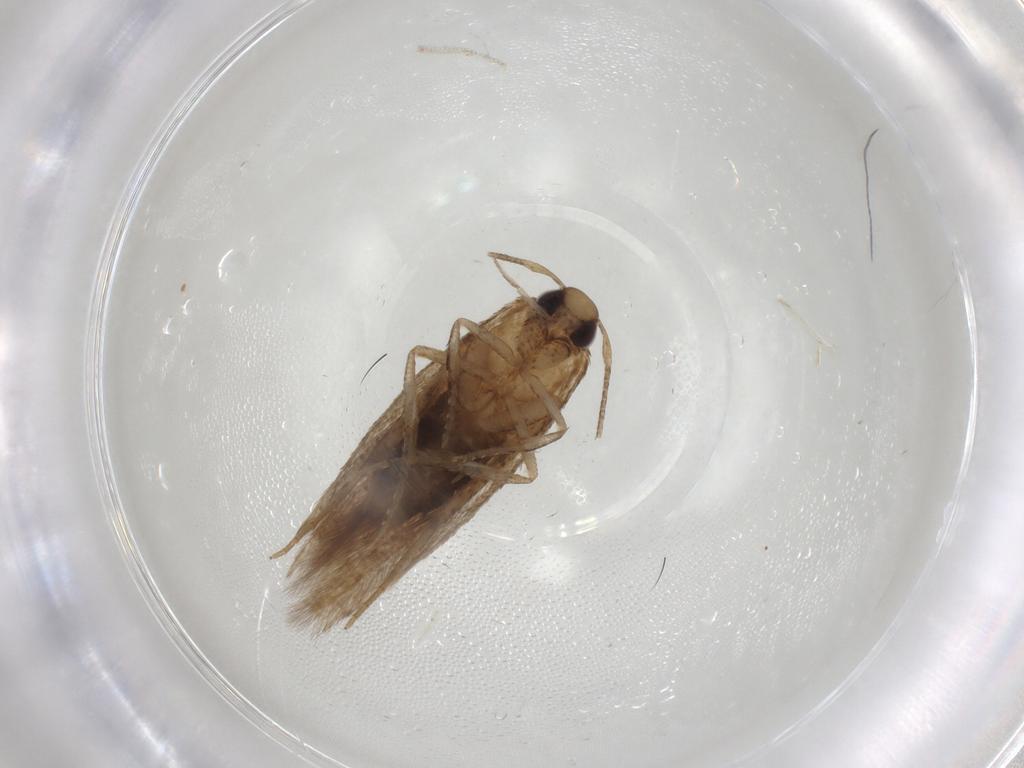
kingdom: Animalia
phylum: Arthropoda
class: Insecta
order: Lepidoptera
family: Cosmopterigidae
